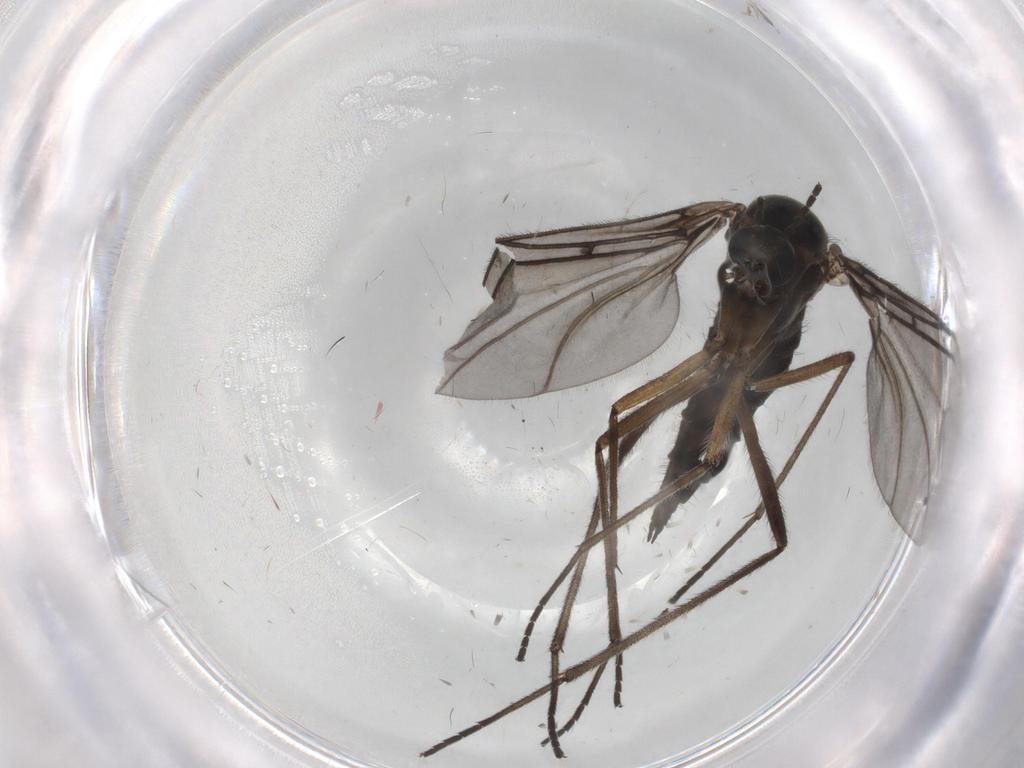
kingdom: Animalia
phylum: Arthropoda
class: Insecta
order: Diptera
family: Sciaridae
